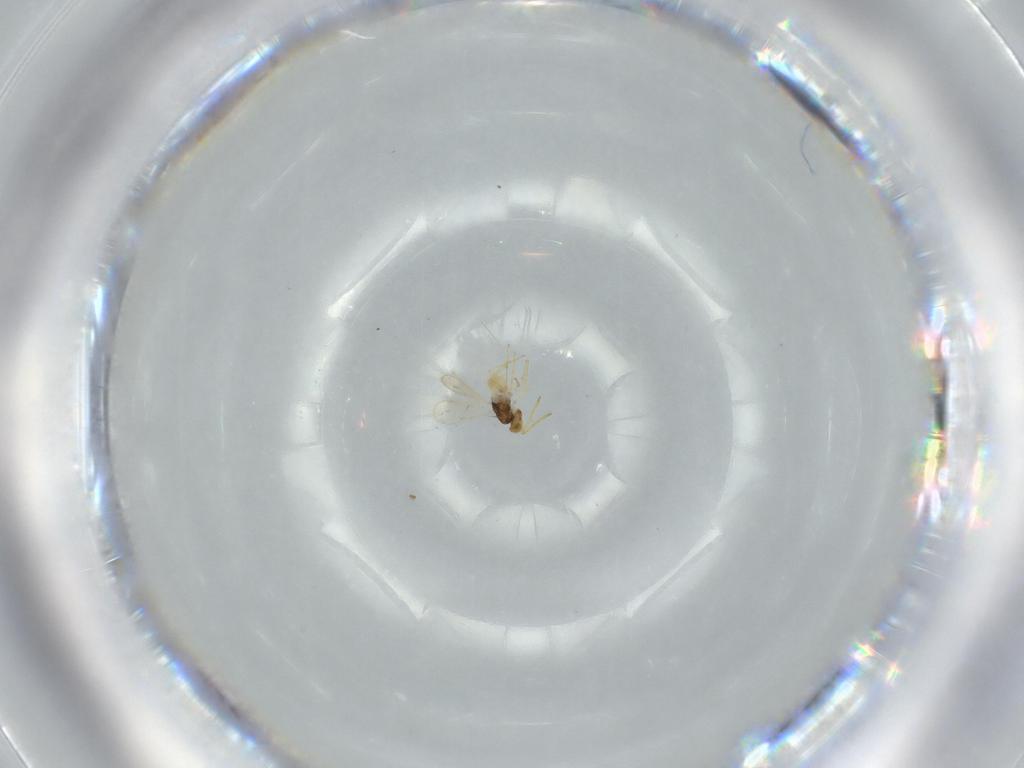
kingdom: Animalia
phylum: Arthropoda
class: Insecta
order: Hymenoptera
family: Aphelinidae
